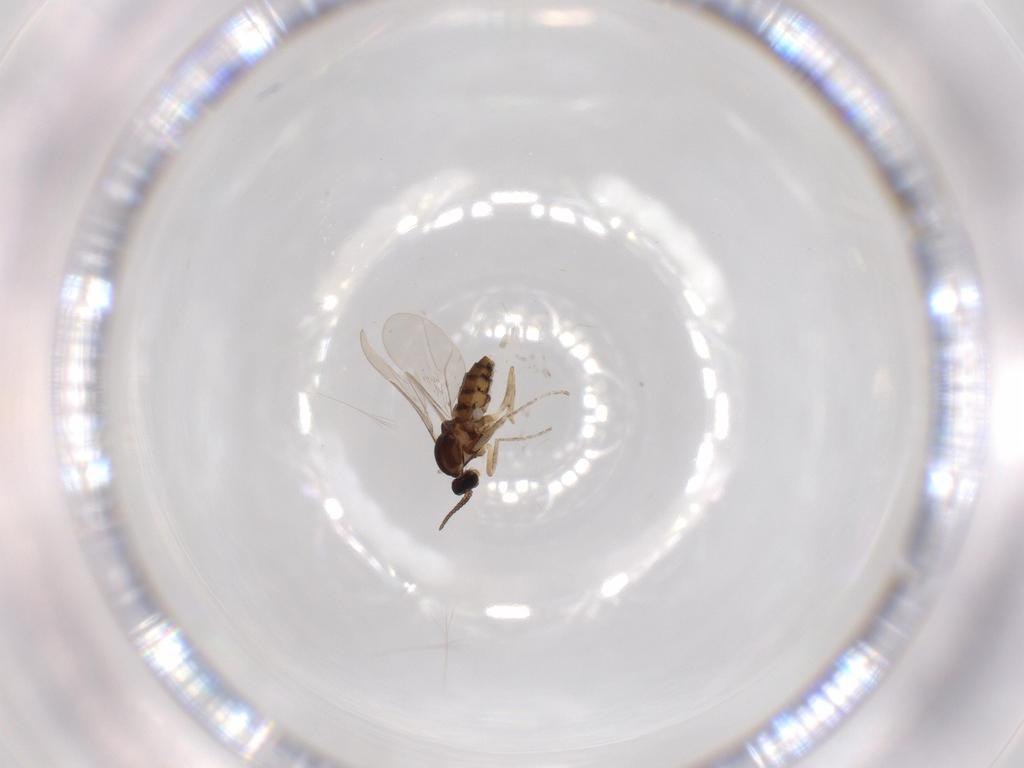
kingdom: Animalia
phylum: Arthropoda
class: Insecta
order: Diptera
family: Cecidomyiidae
